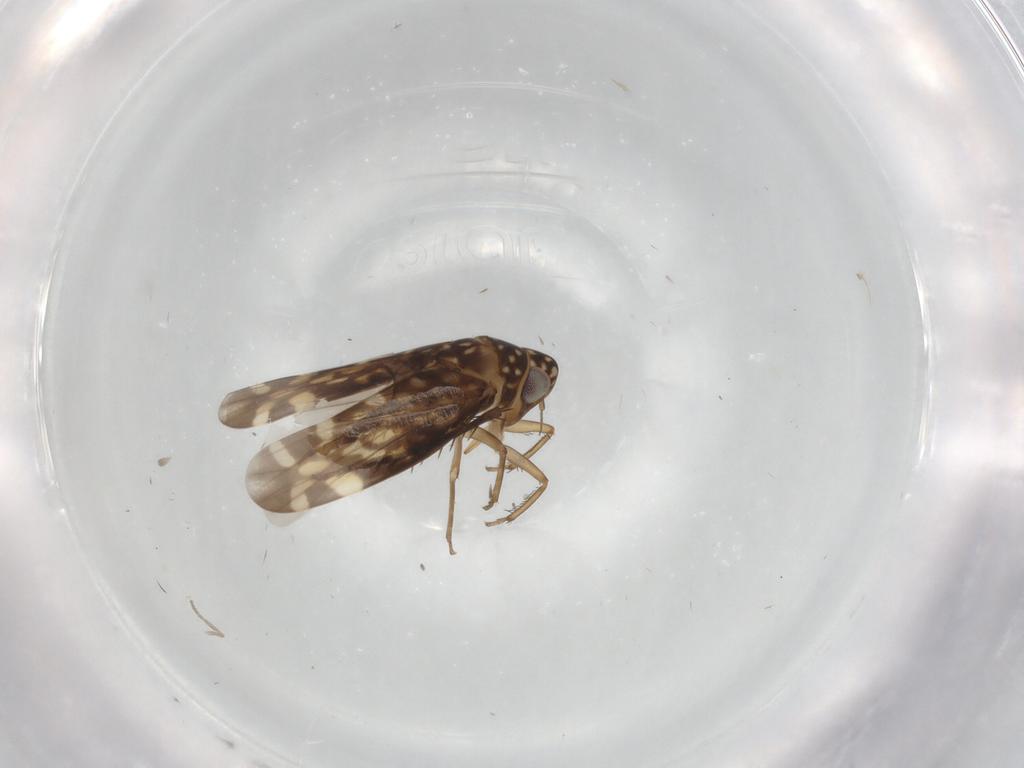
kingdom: Animalia
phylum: Arthropoda
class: Insecta
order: Hemiptera
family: Cicadellidae
